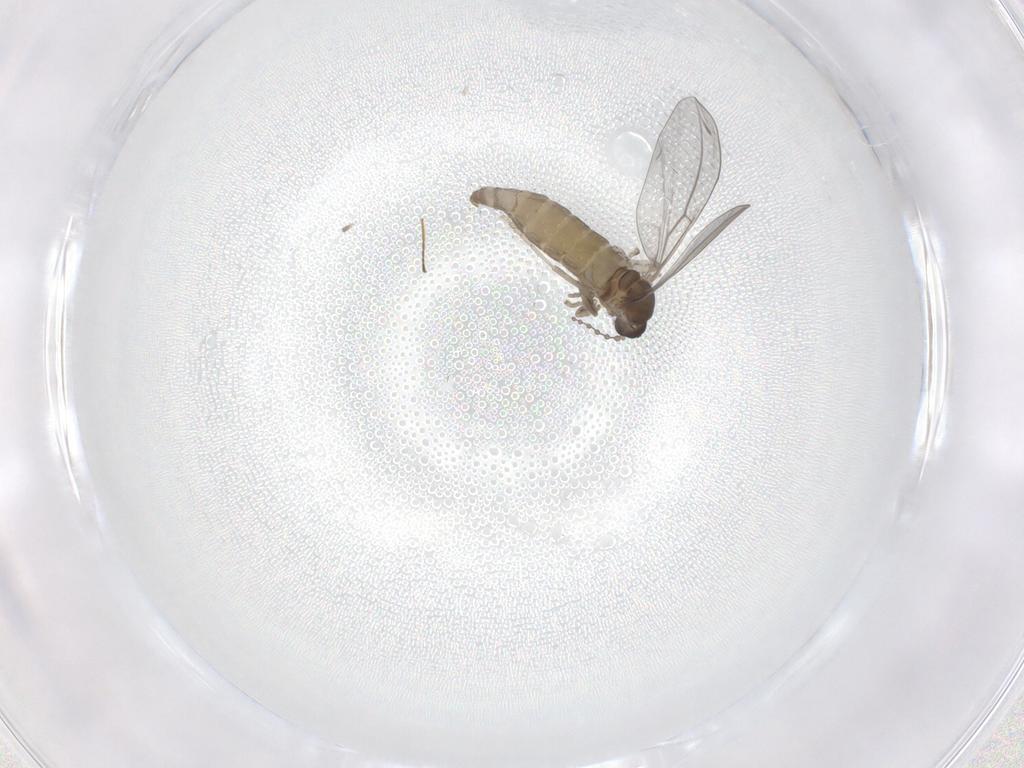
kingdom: Animalia
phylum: Arthropoda
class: Insecta
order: Diptera
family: Cecidomyiidae
